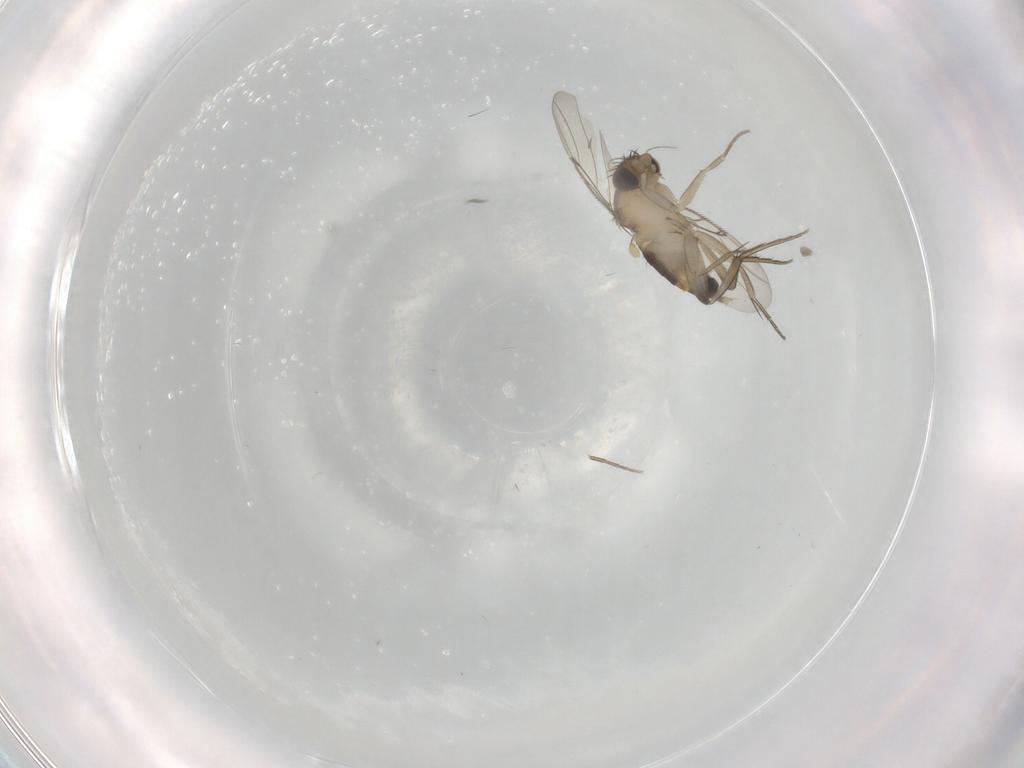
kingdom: Animalia
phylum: Arthropoda
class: Insecta
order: Diptera
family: Phoridae
